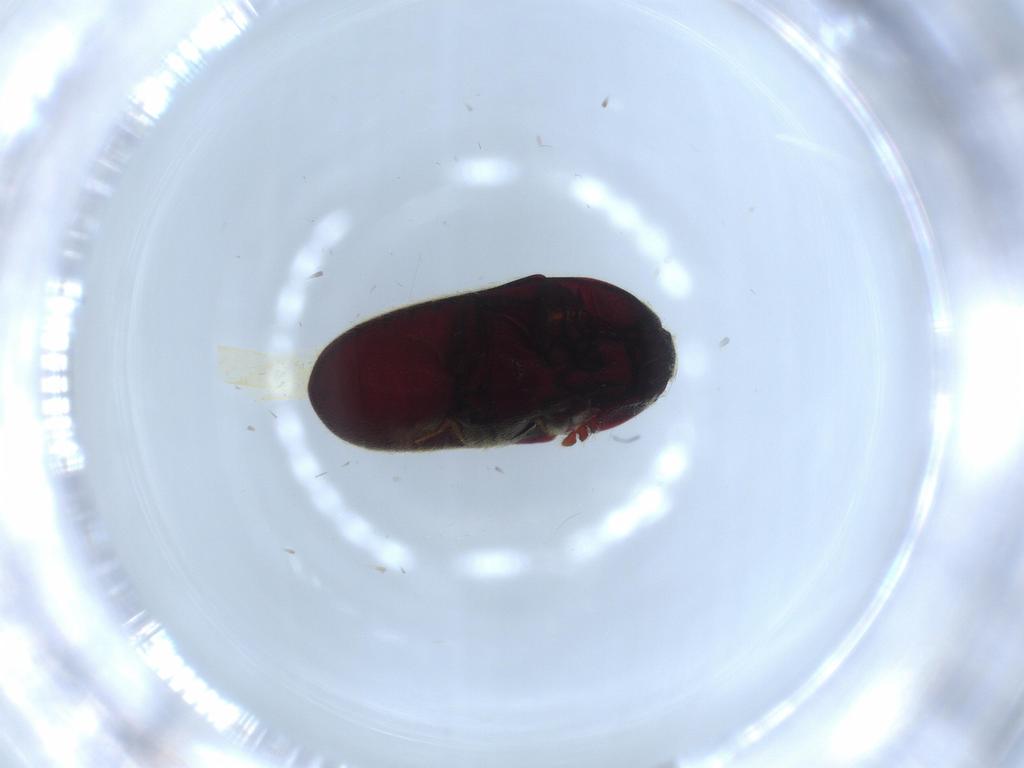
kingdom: Animalia
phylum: Arthropoda
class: Insecta
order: Coleoptera
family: Throscidae
